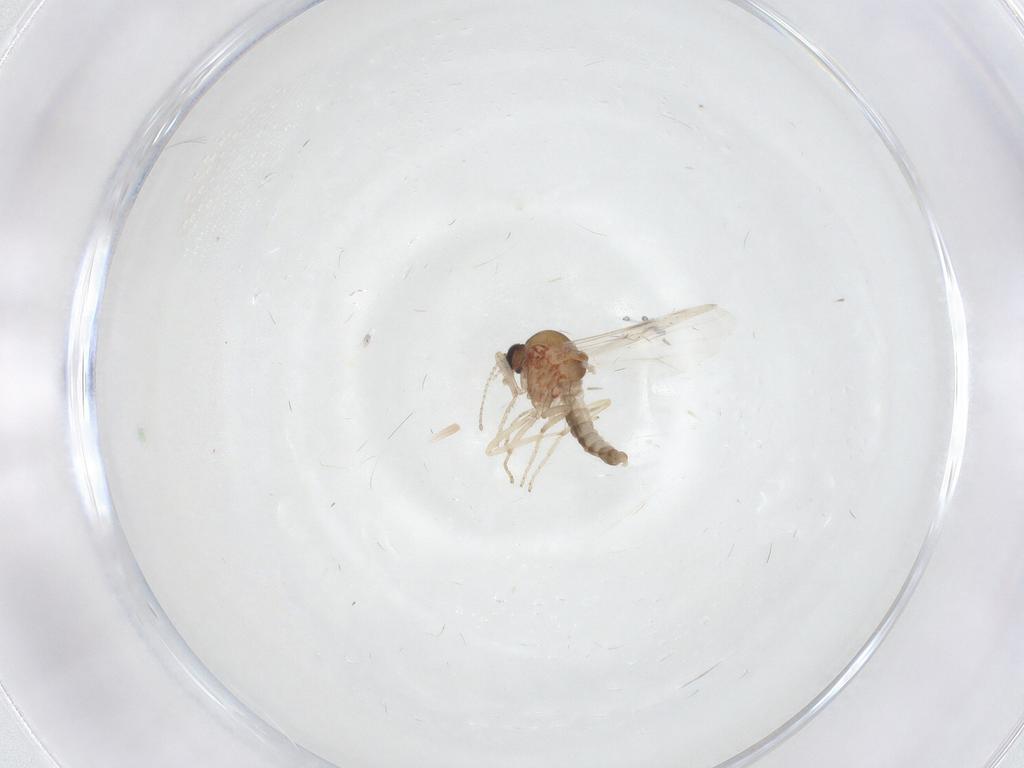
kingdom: Animalia
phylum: Arthropoda
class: Insecta
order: Diptera
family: Ceratopogonidae
